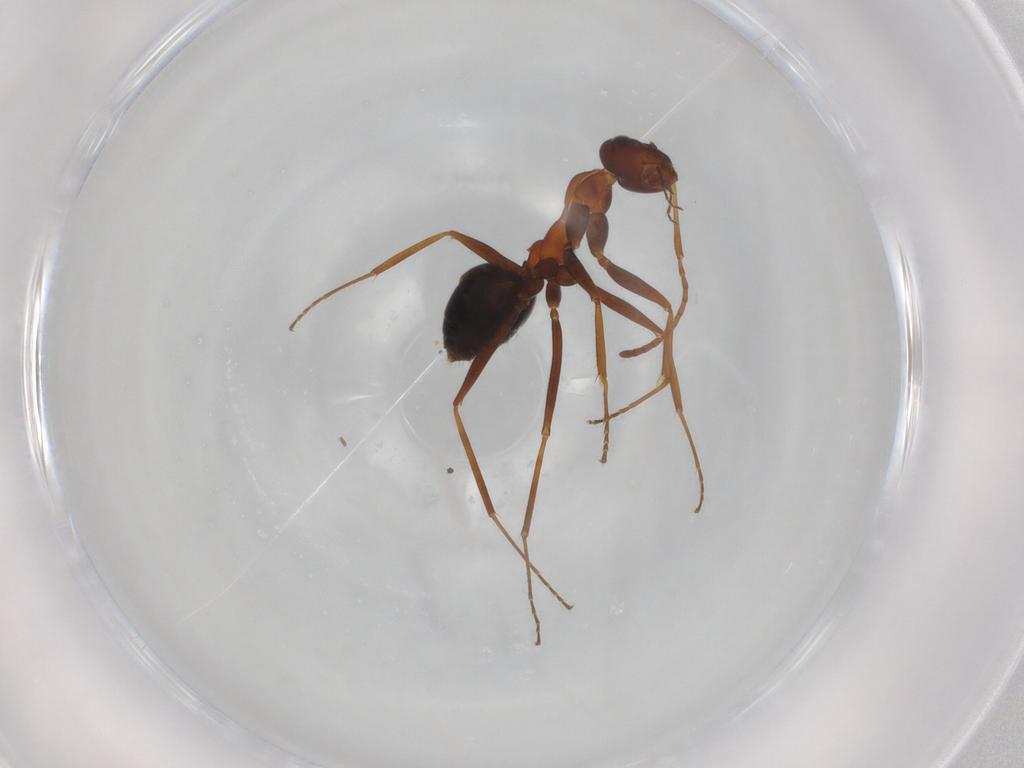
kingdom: Animalia
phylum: Arthropoda
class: Insecta
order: Hymenoptera
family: Formicidae
